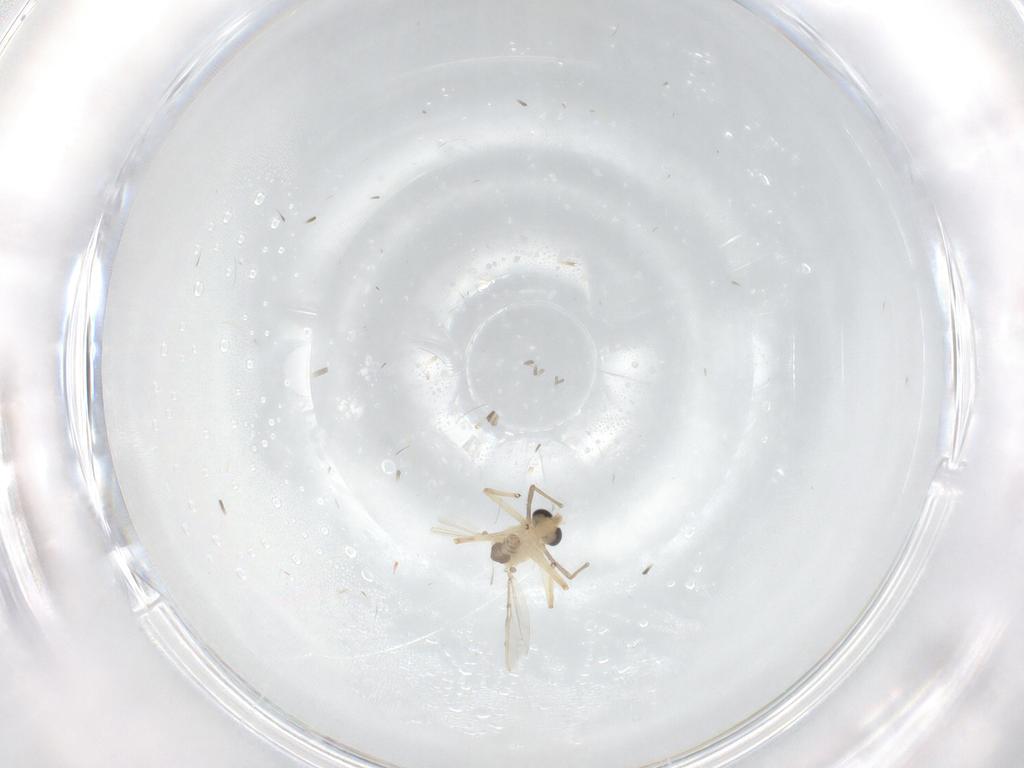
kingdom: Animalia
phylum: Arthropoda
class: Insecta
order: Diptera
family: Chironomidae
